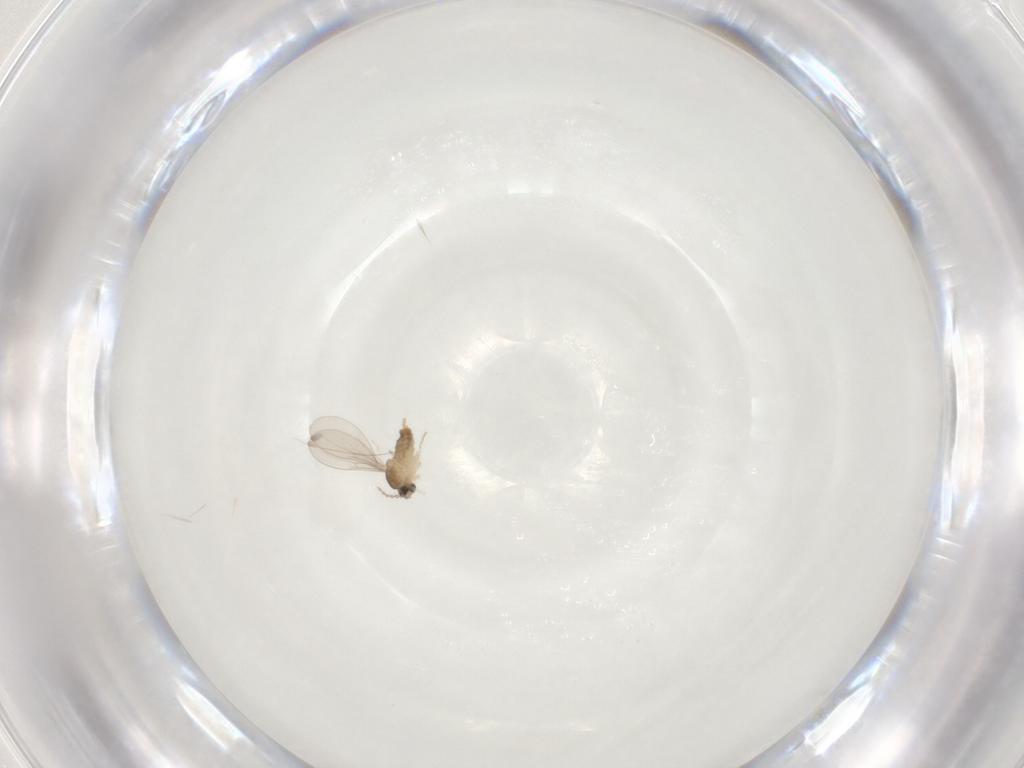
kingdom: Animalia
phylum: Arthropoda
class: Insecta
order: Diptera
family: Cecidomyiidae
